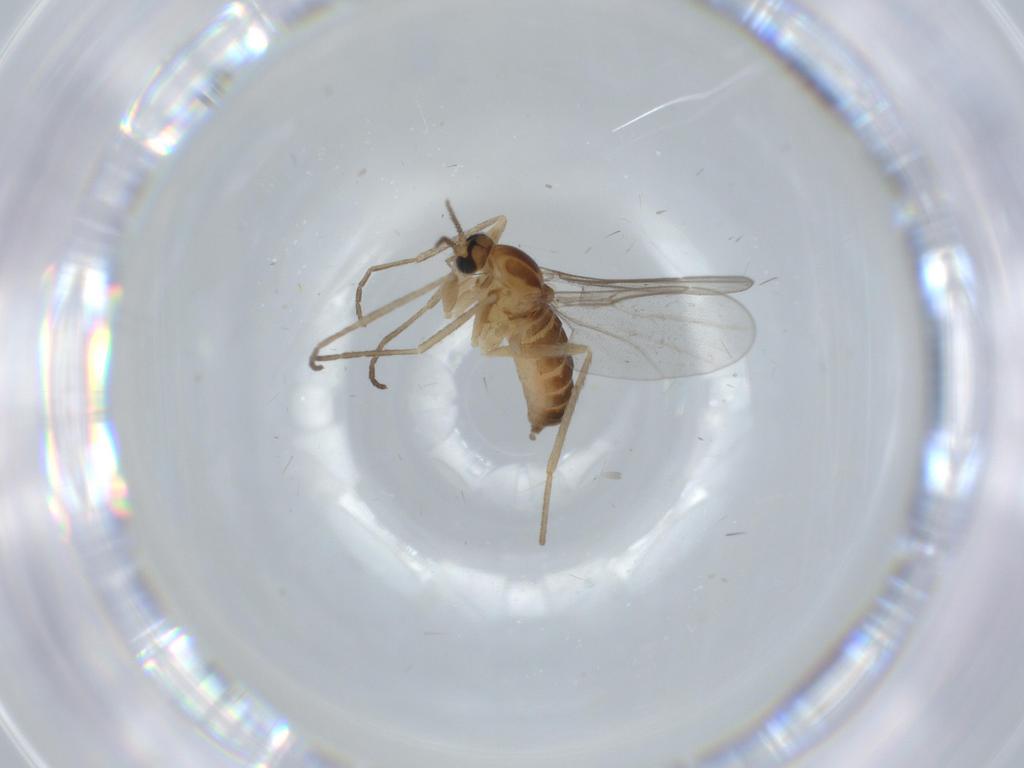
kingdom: Animalia
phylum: Arthropoda
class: Insecta
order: Diptera
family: Cecidomyiidae
